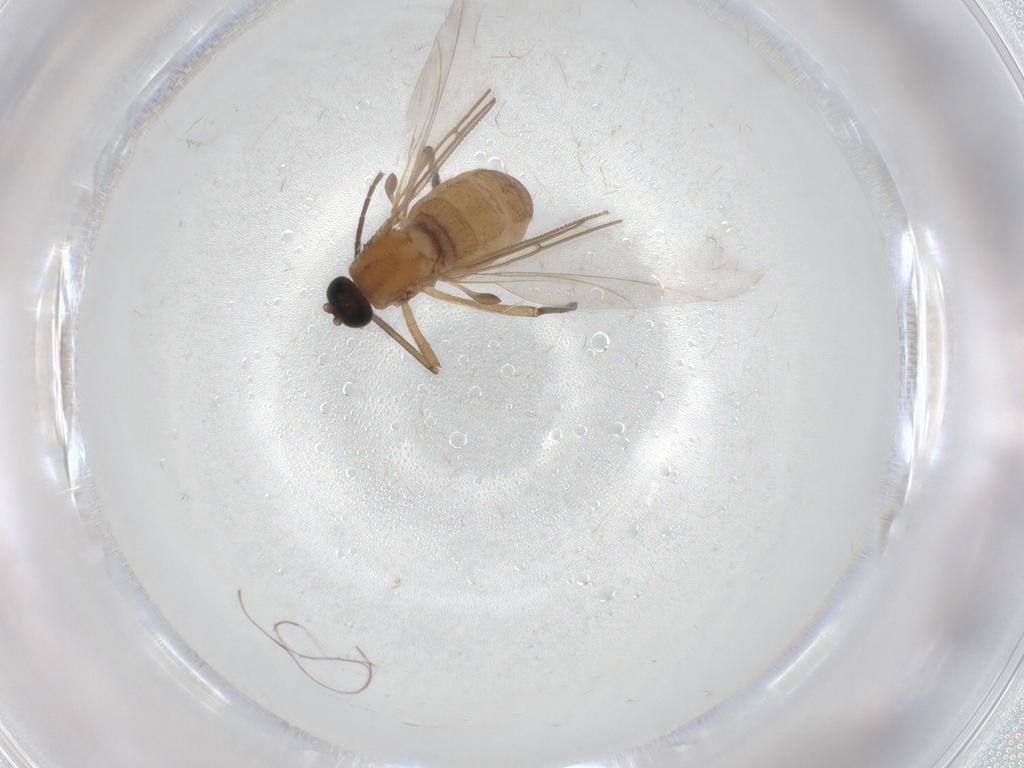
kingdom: Animalia
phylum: Arthropoda
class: Insecta
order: Diptera
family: Sciaridae
